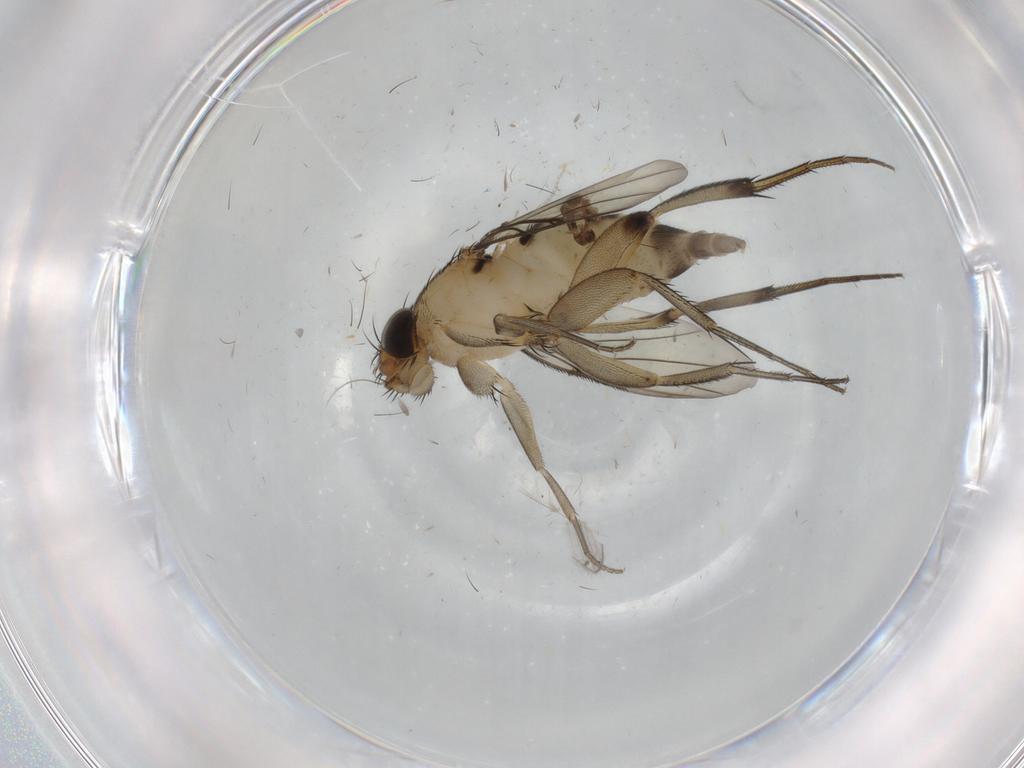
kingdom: Animalia
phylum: Arthropoda
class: Insecta
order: Diptera
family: Phoridae
